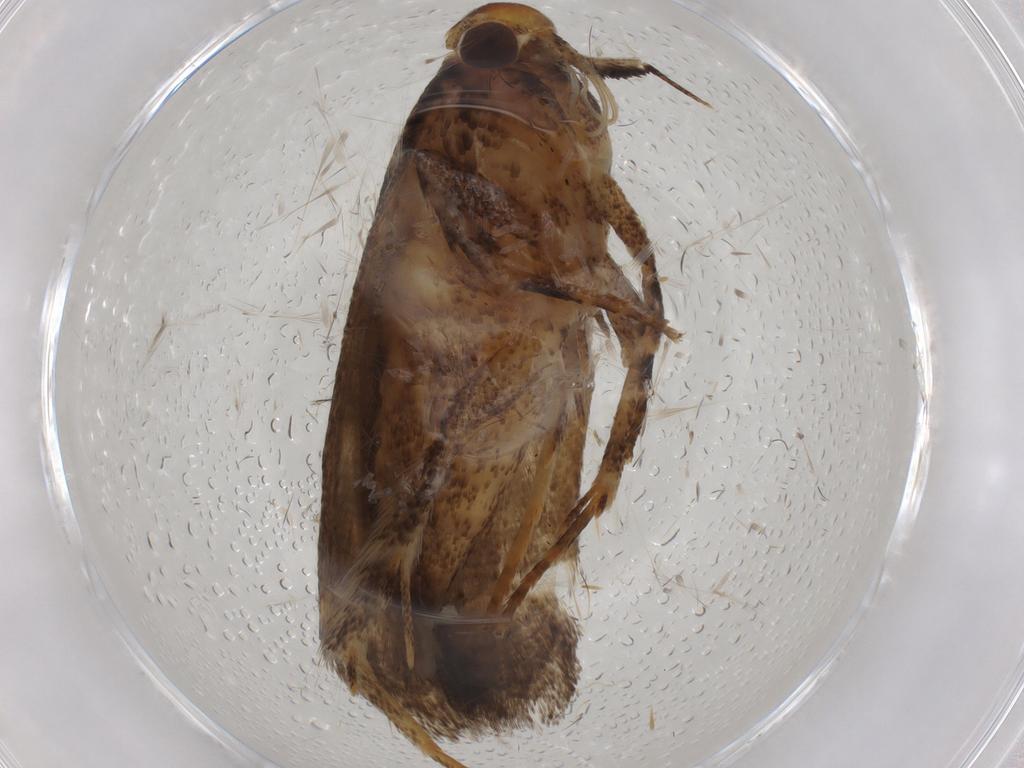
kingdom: Animalia
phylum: Arthropoda
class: Insecta
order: Lepidoptera
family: Gelechiidae
